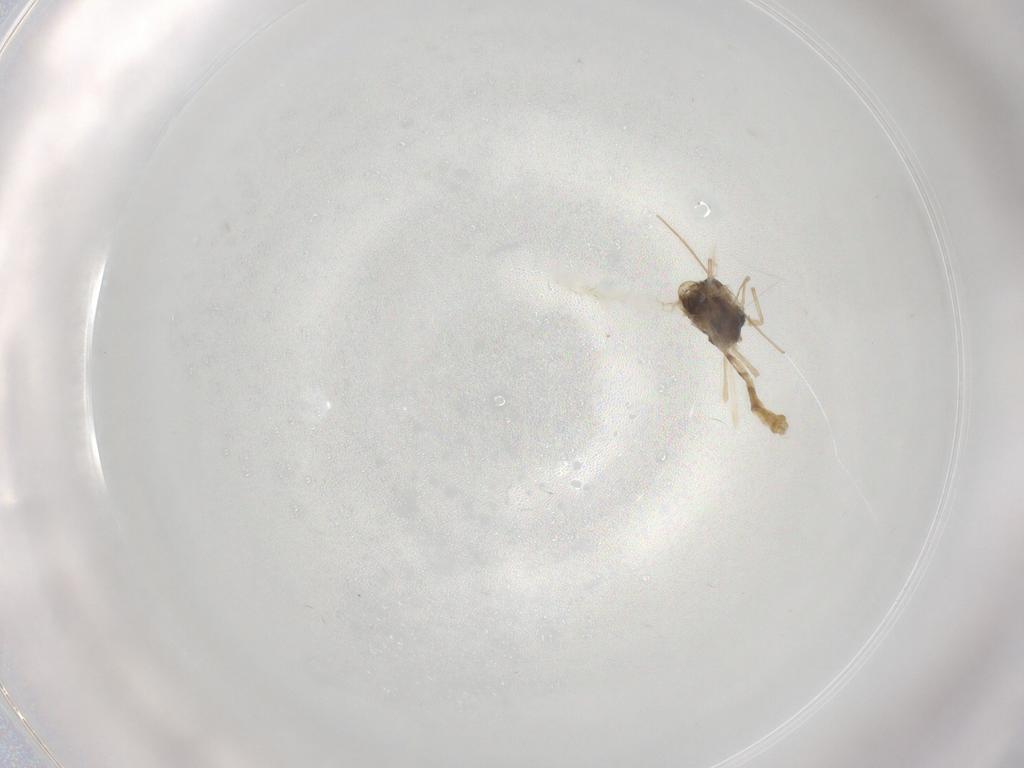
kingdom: Animalia
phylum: Arthropoda
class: Insecta
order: Diptera
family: Chironomidae
